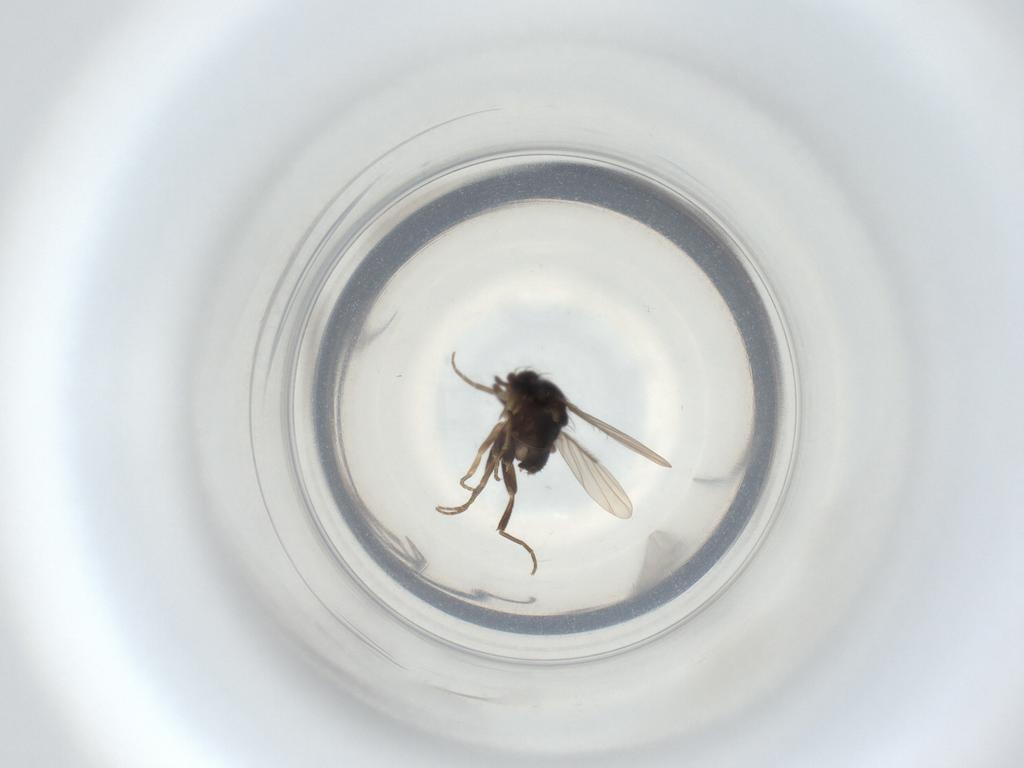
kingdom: Animalia
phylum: Arthropoda
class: Insecta
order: Diptera
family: Phoridae
